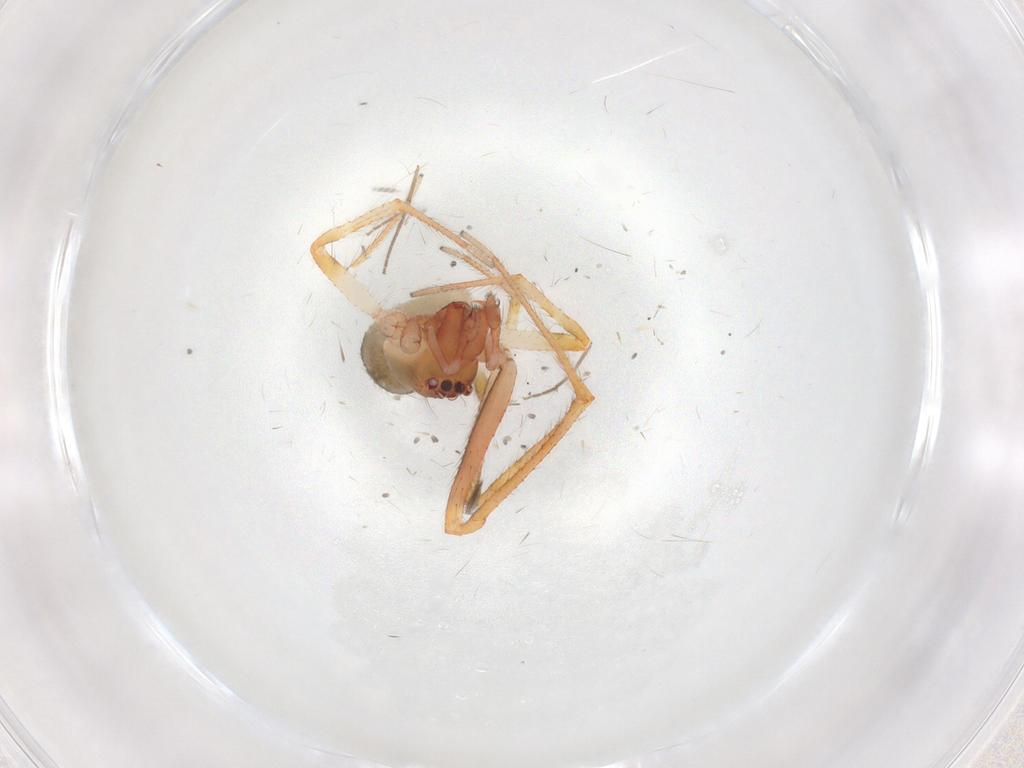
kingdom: Animalia
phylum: Arthropoda
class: Arachnida
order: Araneae
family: Theridiidae
